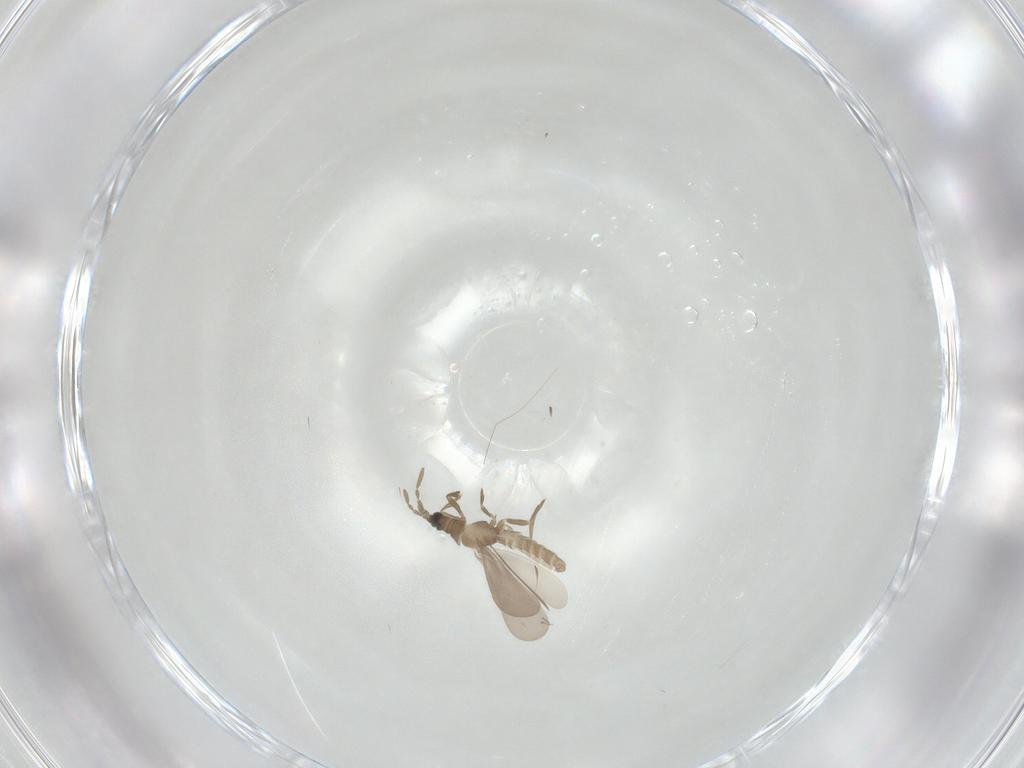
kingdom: Animalia
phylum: Arthropoda
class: Insecta
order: Hemiptera
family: Enicocephalidae
